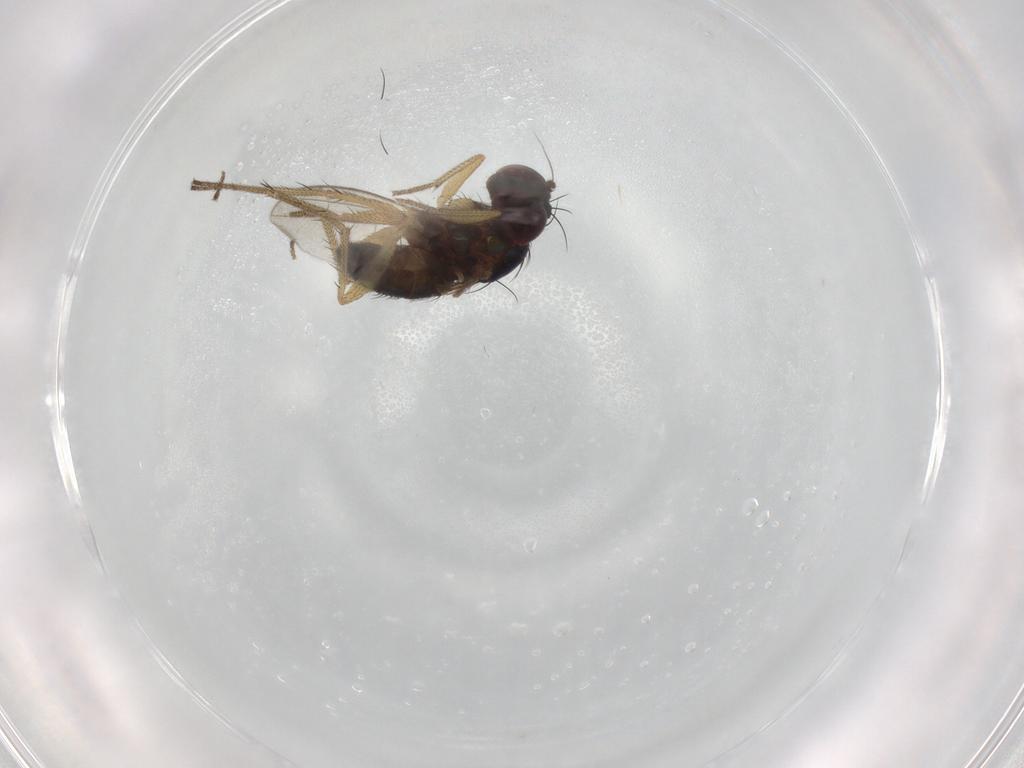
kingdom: Animalia
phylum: Arthropoda
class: Insecta
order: Diptera
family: Dolichopodidae
